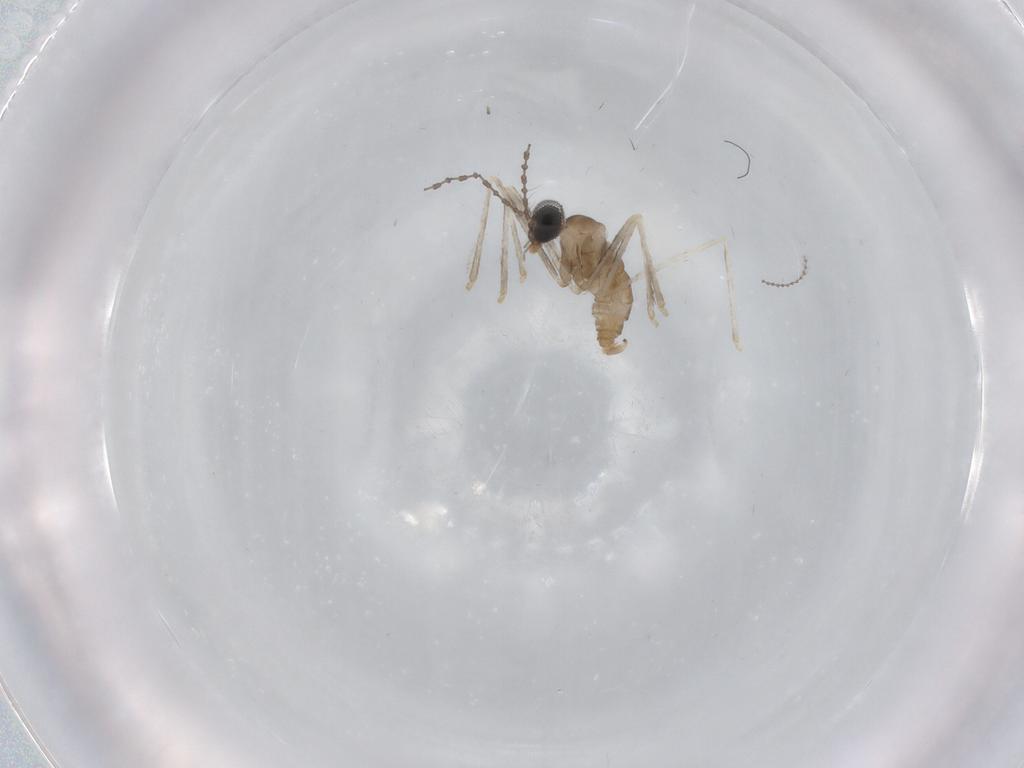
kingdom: Animalia
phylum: Arthropoda
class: Insecta
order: Diptera
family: Cecidomyiidae
